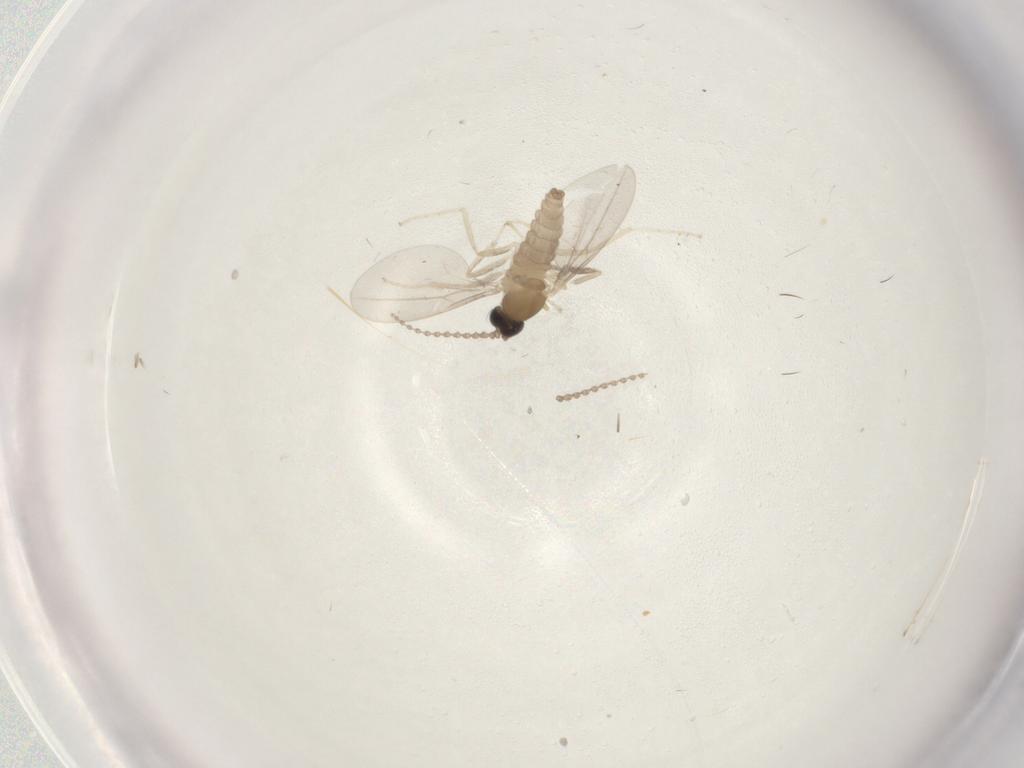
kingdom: Animalia
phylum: Arthropoda
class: Insecta
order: Diptera
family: Cecidomyiidae
